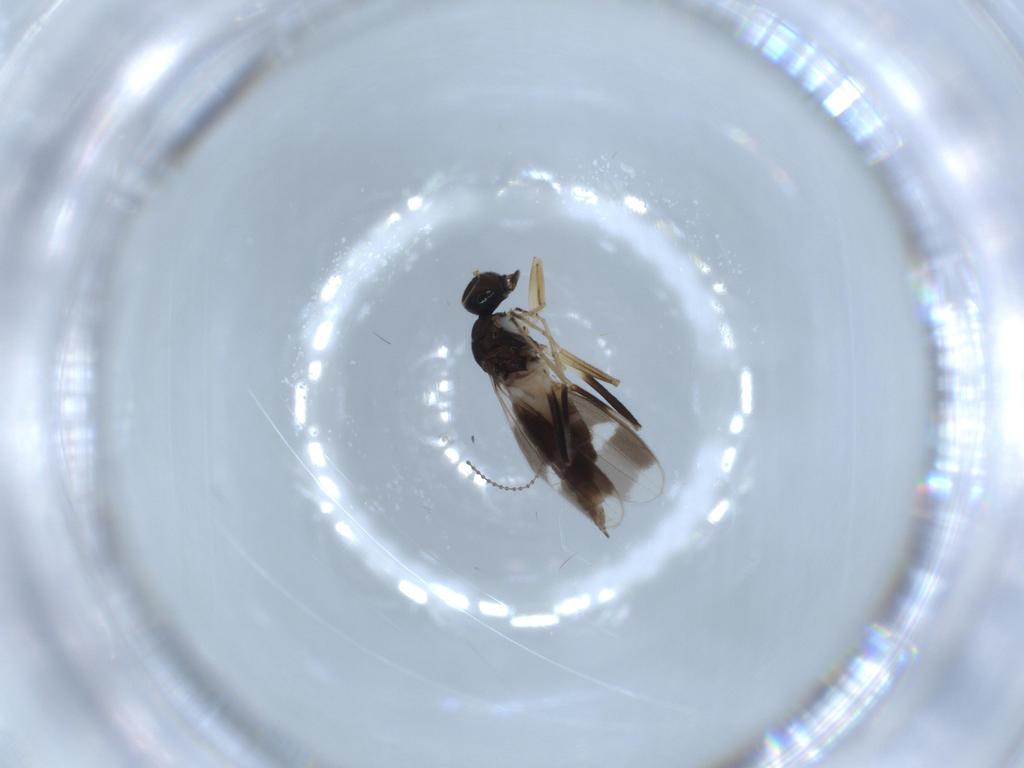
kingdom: Animalia
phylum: Arthropoda
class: Insecta
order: Diptera
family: Hybotidae
